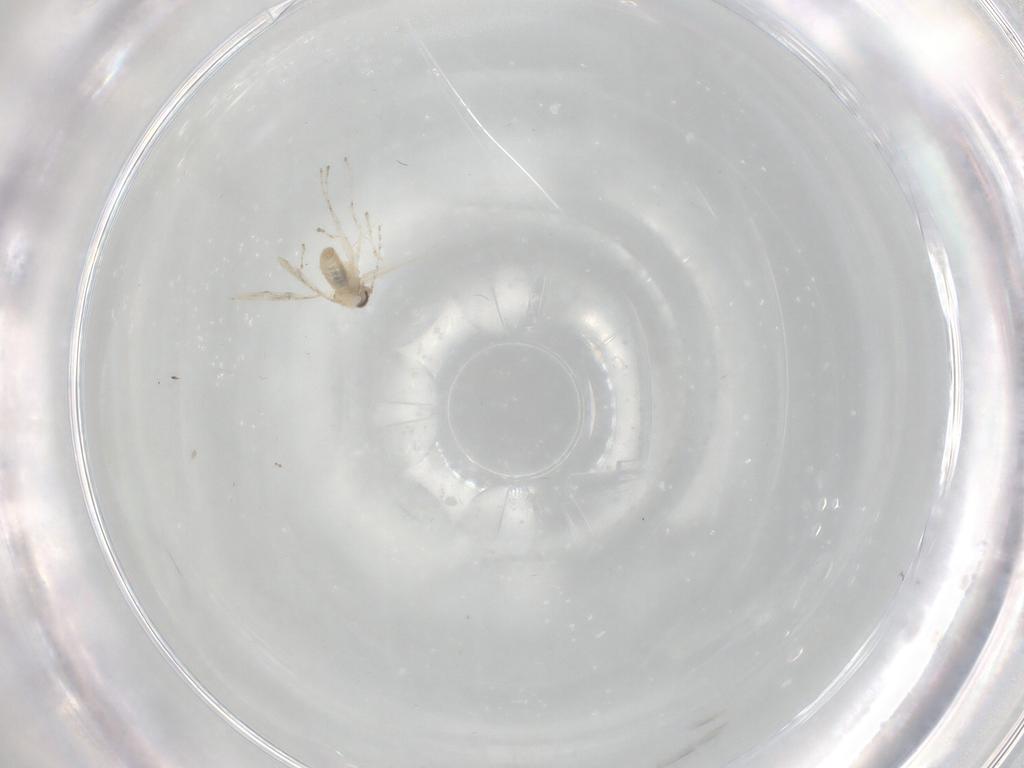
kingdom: Animalia
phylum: Arthropoda
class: Insecta
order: Diptera
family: Cecidomyiidae
